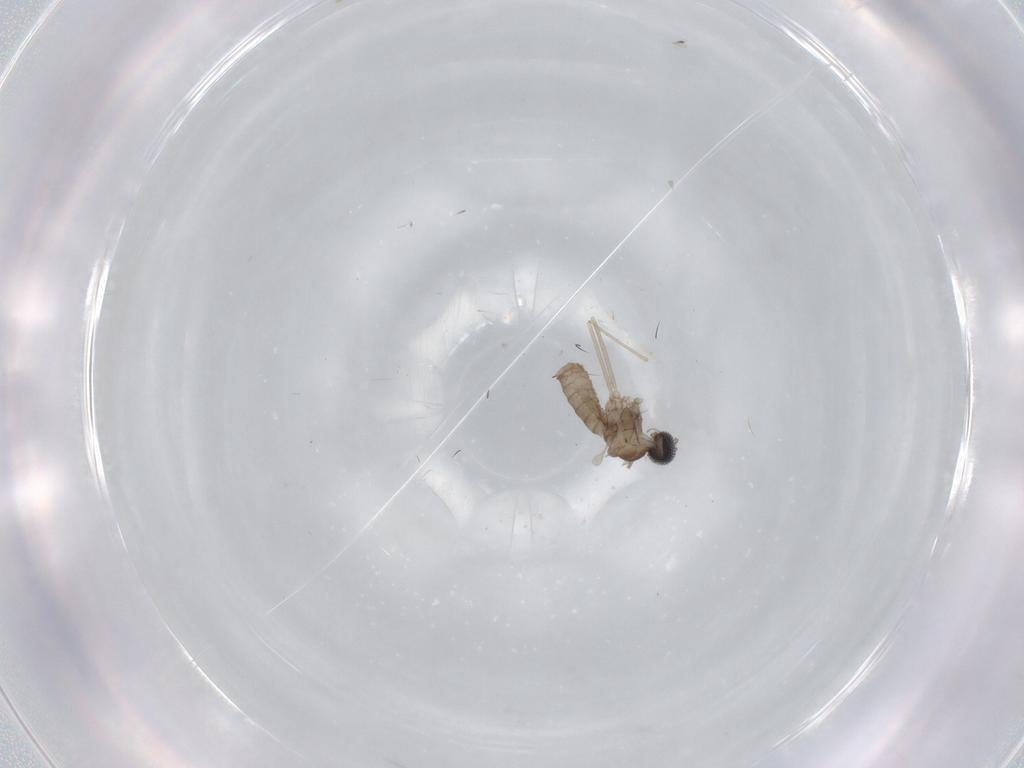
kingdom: Animalia
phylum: Arthropoda
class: Insecta
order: Diptera
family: Cecidomyiidae
